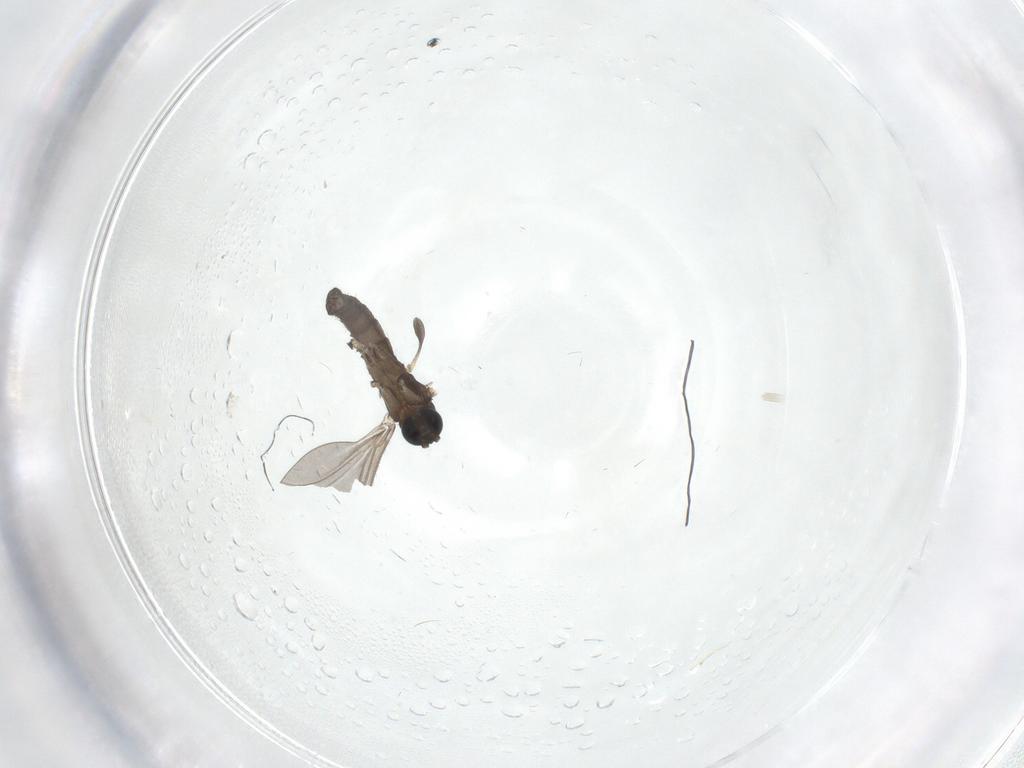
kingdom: Animalia
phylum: Arthropoda
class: Insecta
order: Diptera
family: Sciaridae
